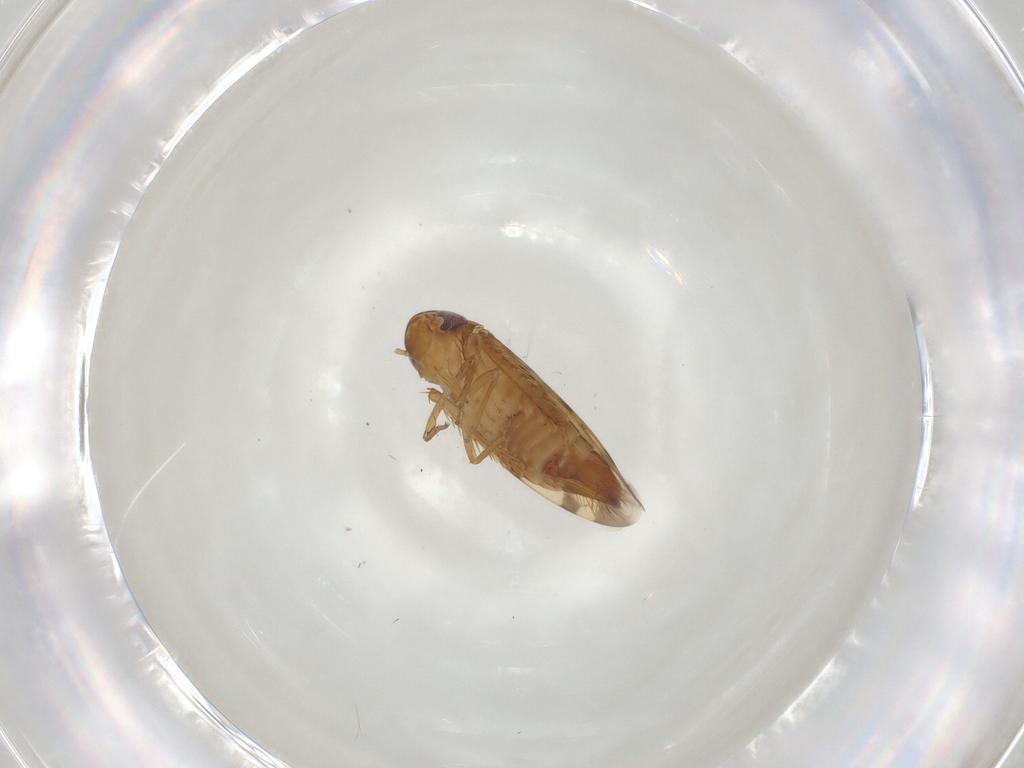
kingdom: Animalia
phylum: Arthropoda
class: Insecta
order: Hemiptera
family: Cicadellidae
